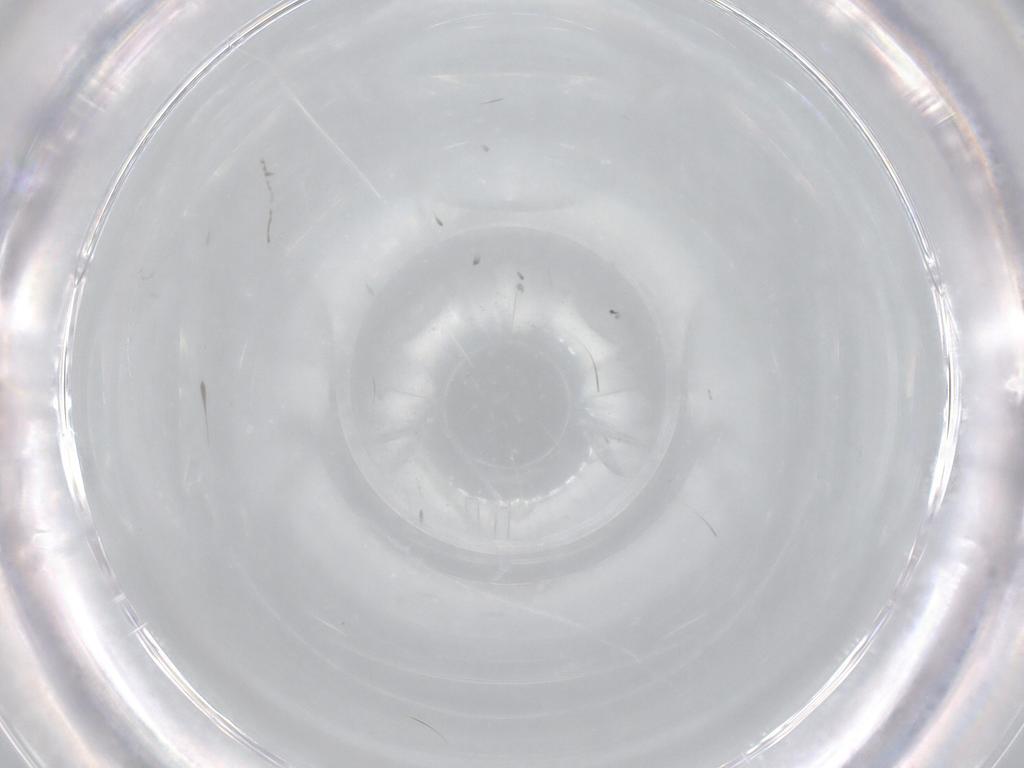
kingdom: Animalia
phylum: Arthropoda
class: Insecta
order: Diptera
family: Cecidomyiidae
